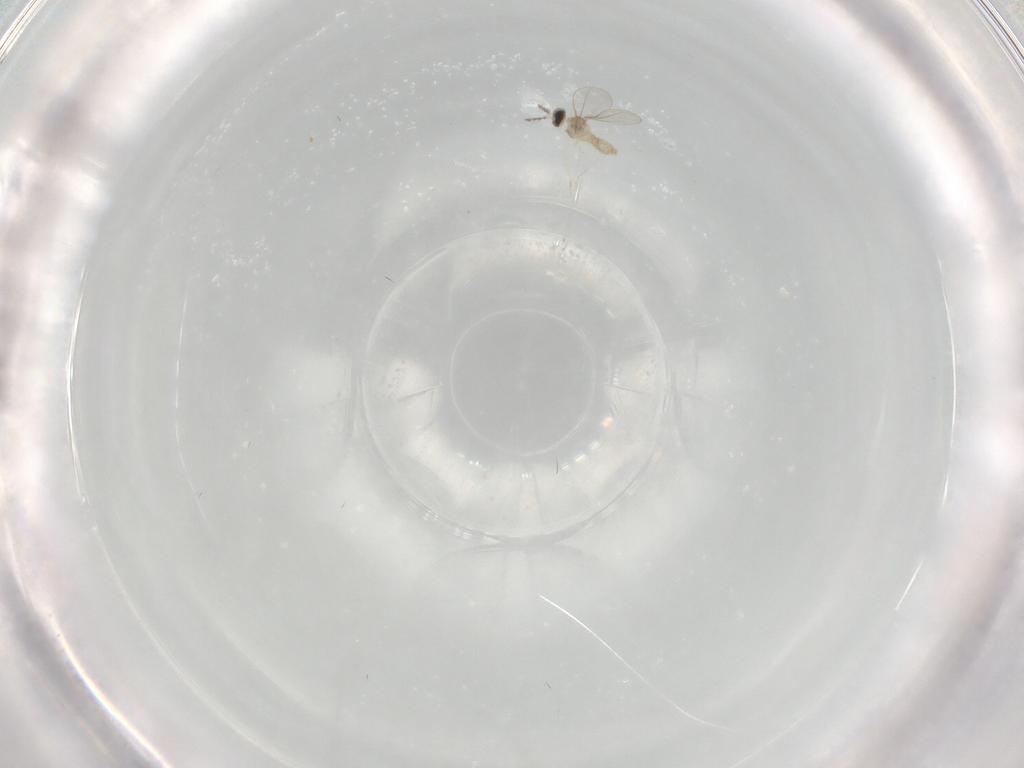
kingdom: Animalia
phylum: Arthropoda
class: Insecta
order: Diptera
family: Cecidomyiidae
